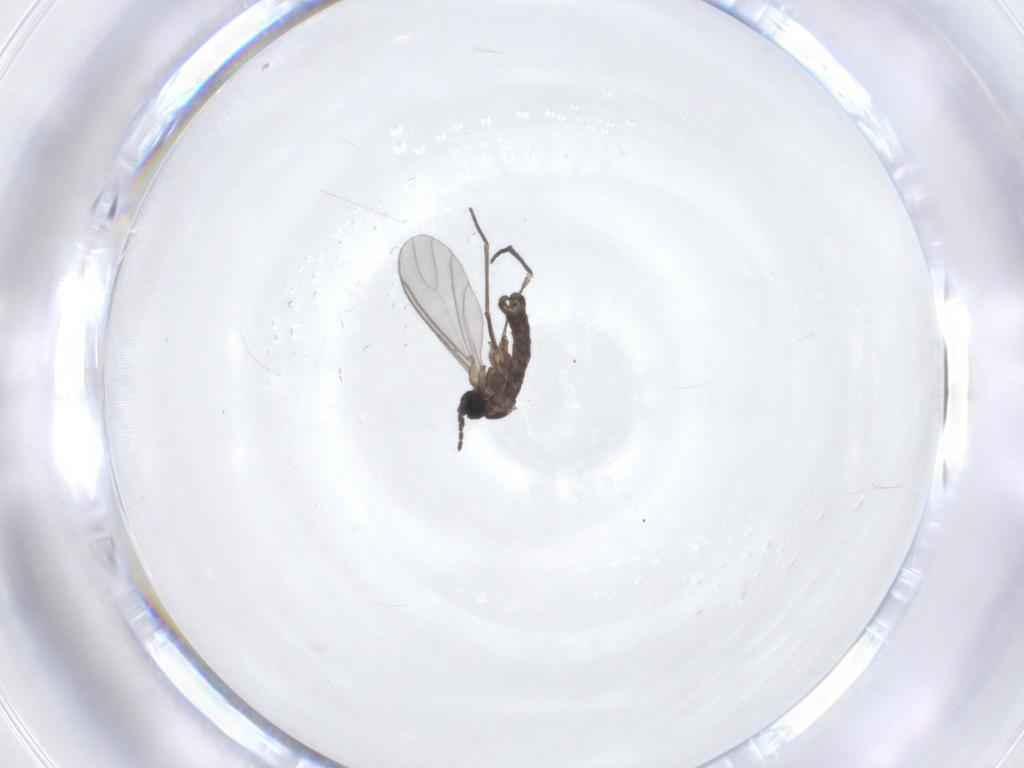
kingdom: Animalia
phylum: Arthropoda
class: Insecta
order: Diptera
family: Sciaridae
